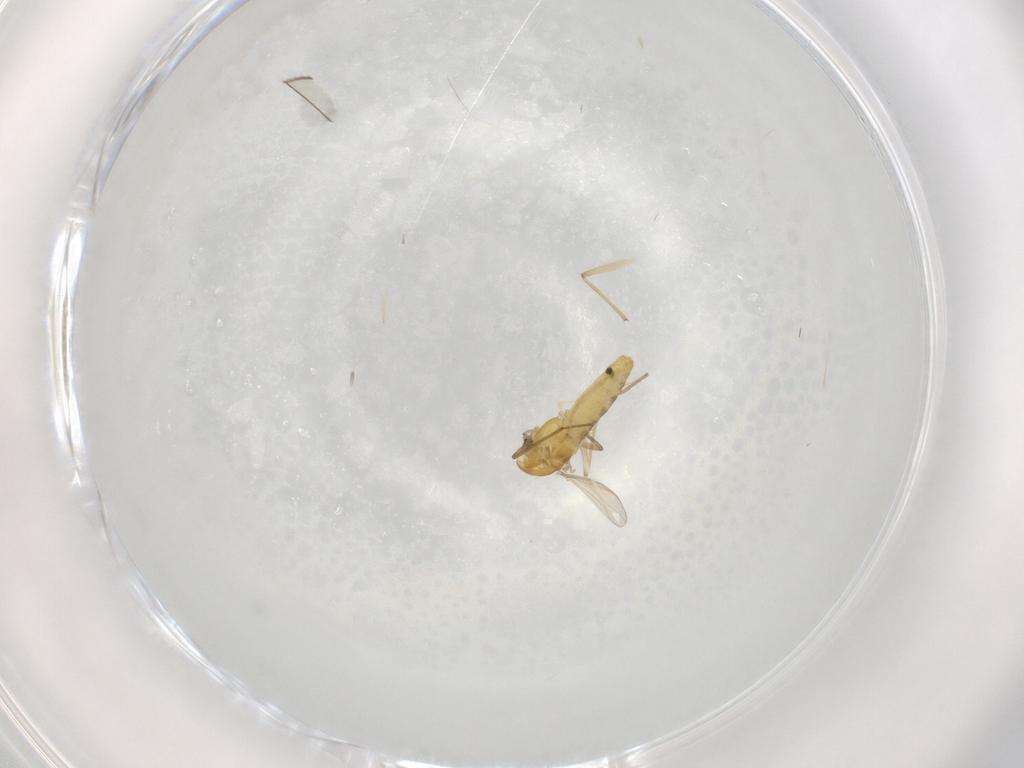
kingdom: Animalia
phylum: Arthropoda
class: Insecta
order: Diptera
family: Chironomidae
